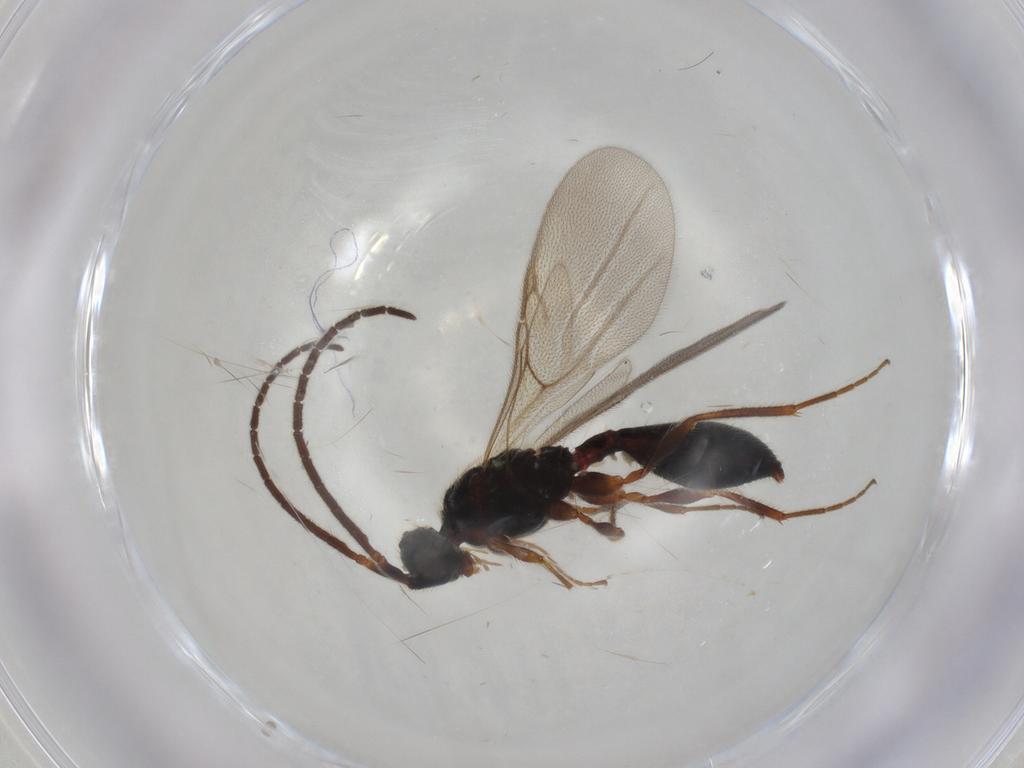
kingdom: Animalia
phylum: Arthropoda
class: Insecta
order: Hymenoptera
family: Diapriidae
